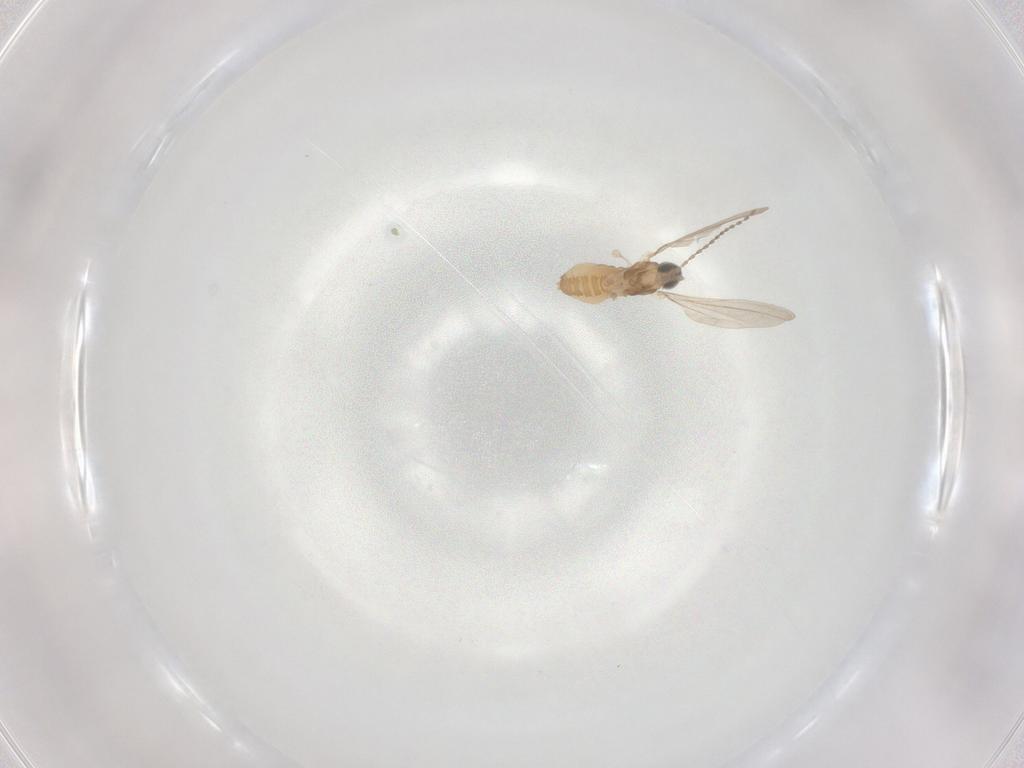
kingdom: Animalia
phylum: Arthropoda
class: Insecta
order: Diptera
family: Cecidomyiidae
